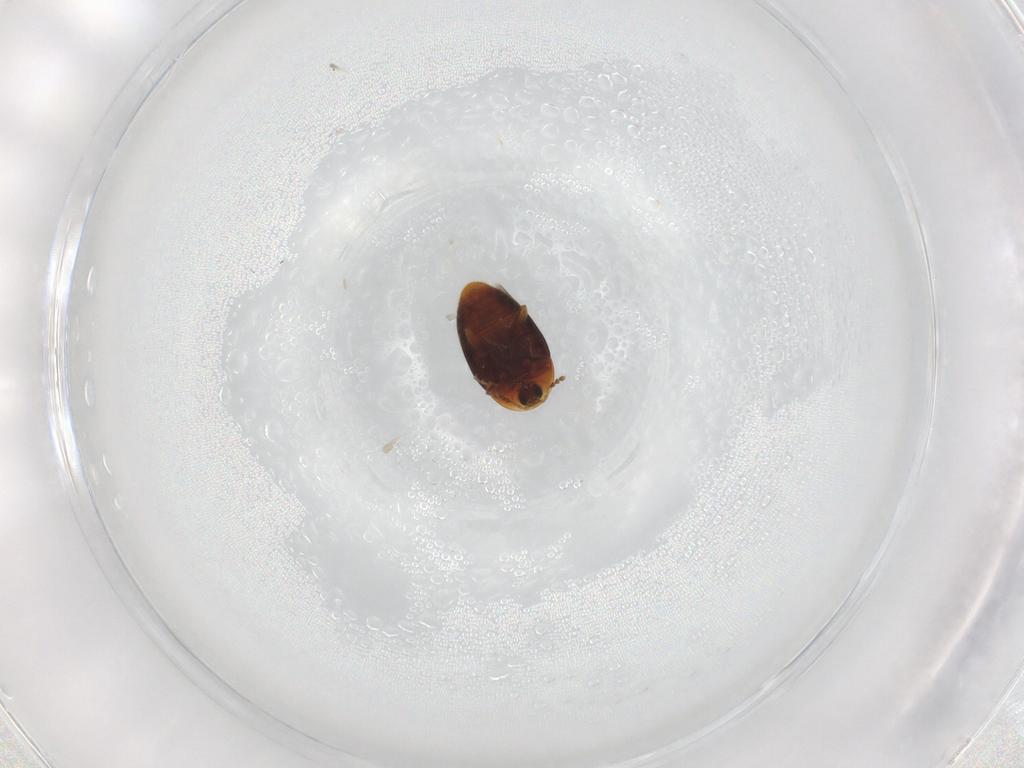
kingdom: Animalia
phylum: Arthropoda
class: Insecta
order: Coleoptera
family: Corylophidae
